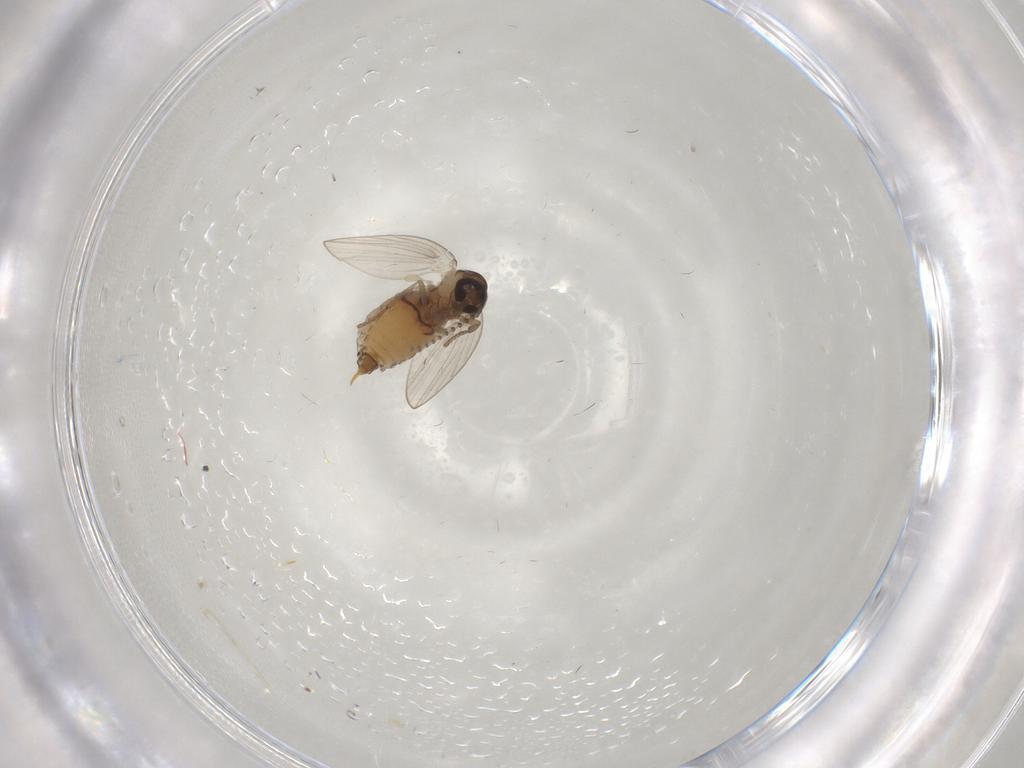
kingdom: Animalia
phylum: Arthropoda
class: Insecta
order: Diptera
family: Psychodidae
